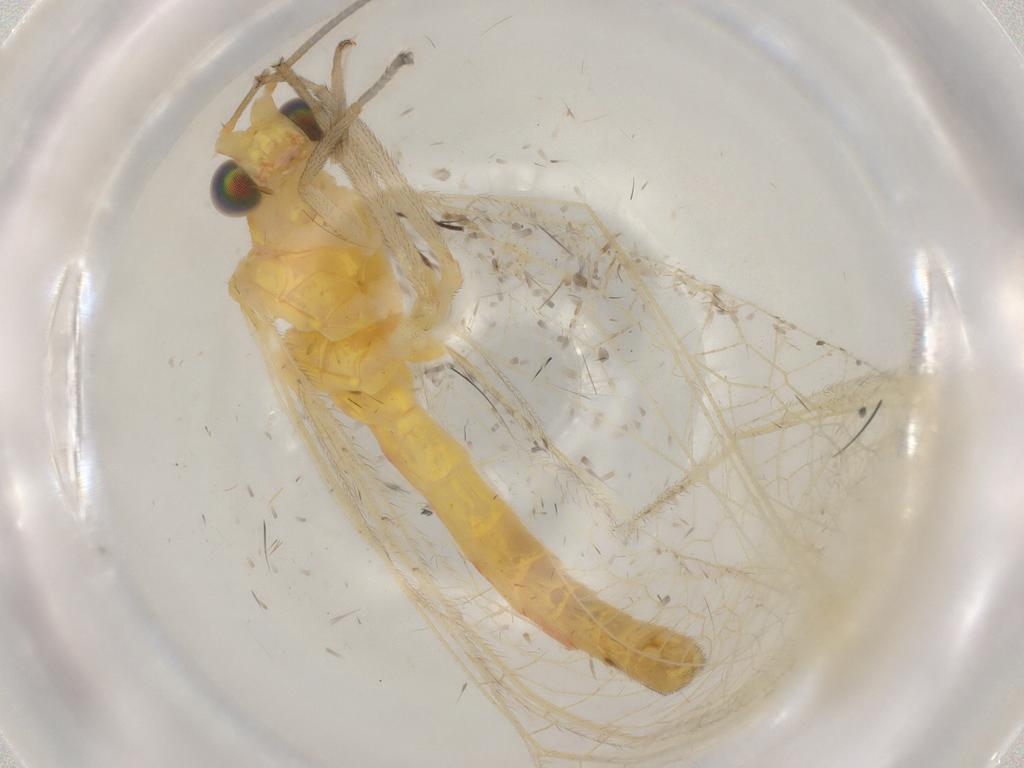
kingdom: Animalia
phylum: Arthropoda
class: Insecta
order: Neuroptera
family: Chrysopidae
